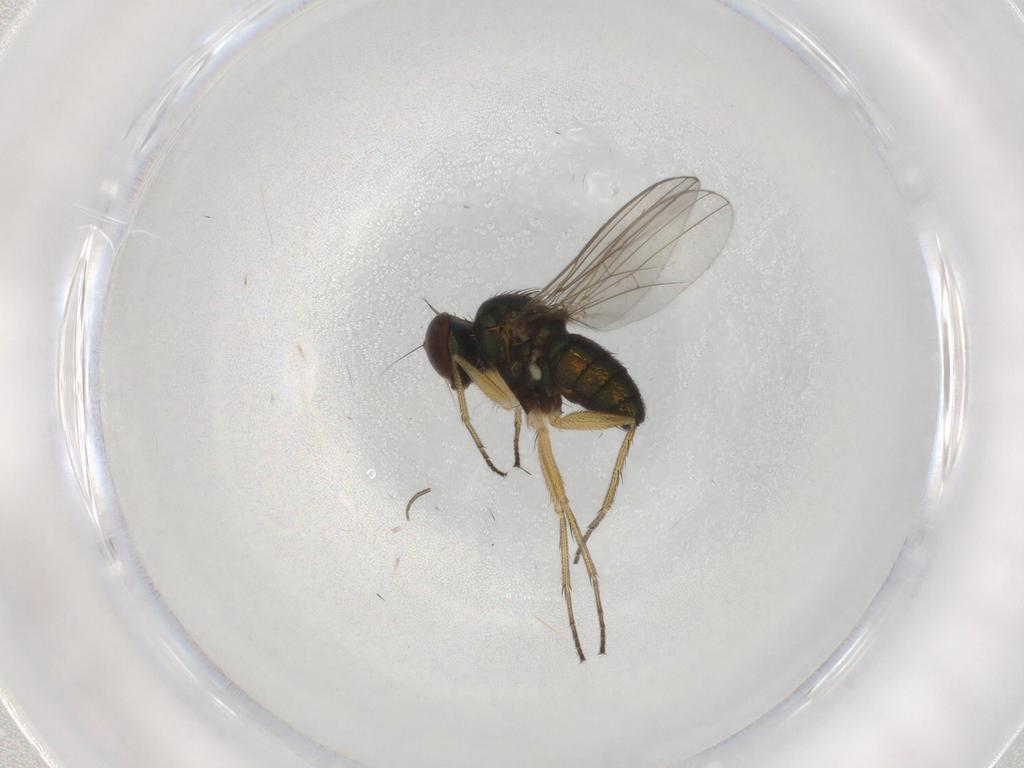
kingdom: Animalia
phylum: Arthropoda
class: Insecta
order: Diptera
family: Phoridae
